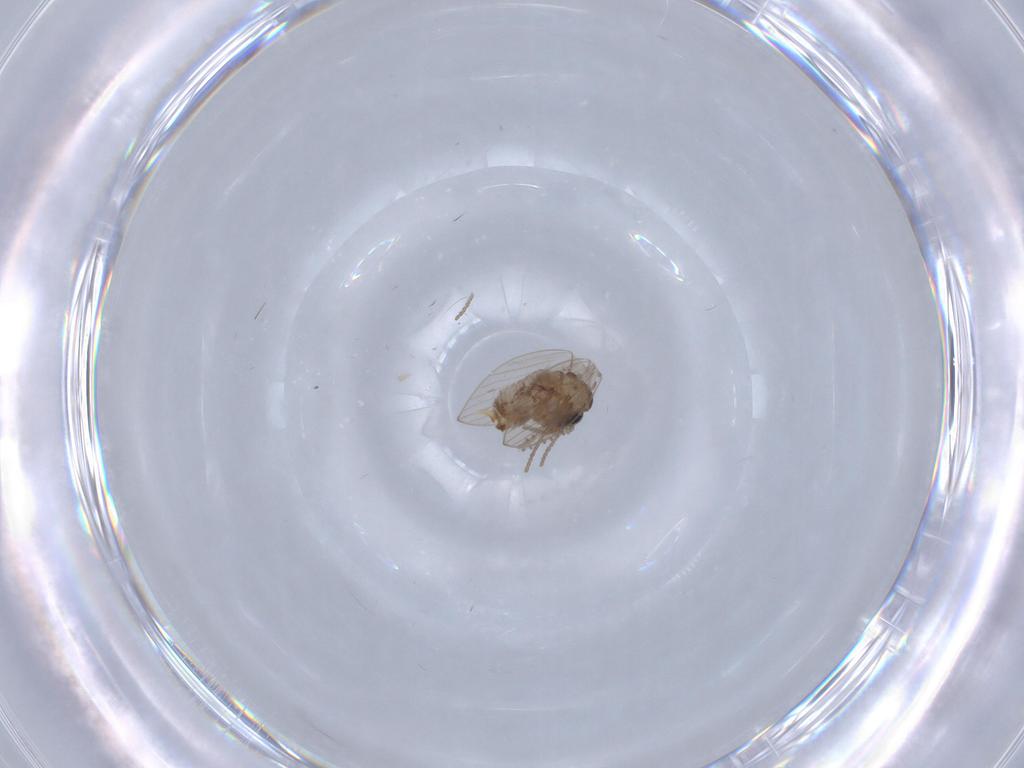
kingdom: Animalia
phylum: Arthropoda
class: Insecta
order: Diptera
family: Psychodidae
